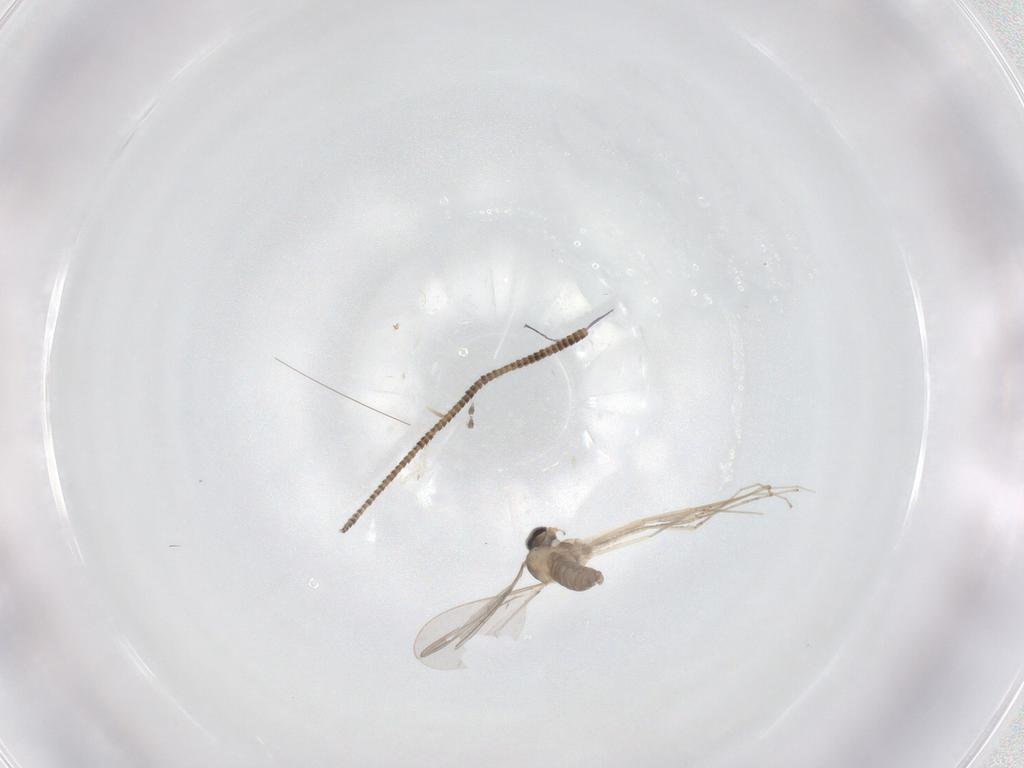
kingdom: Animalia
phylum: Arthropoda
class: Insecta
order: Diptera
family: Cecidomyiidae
